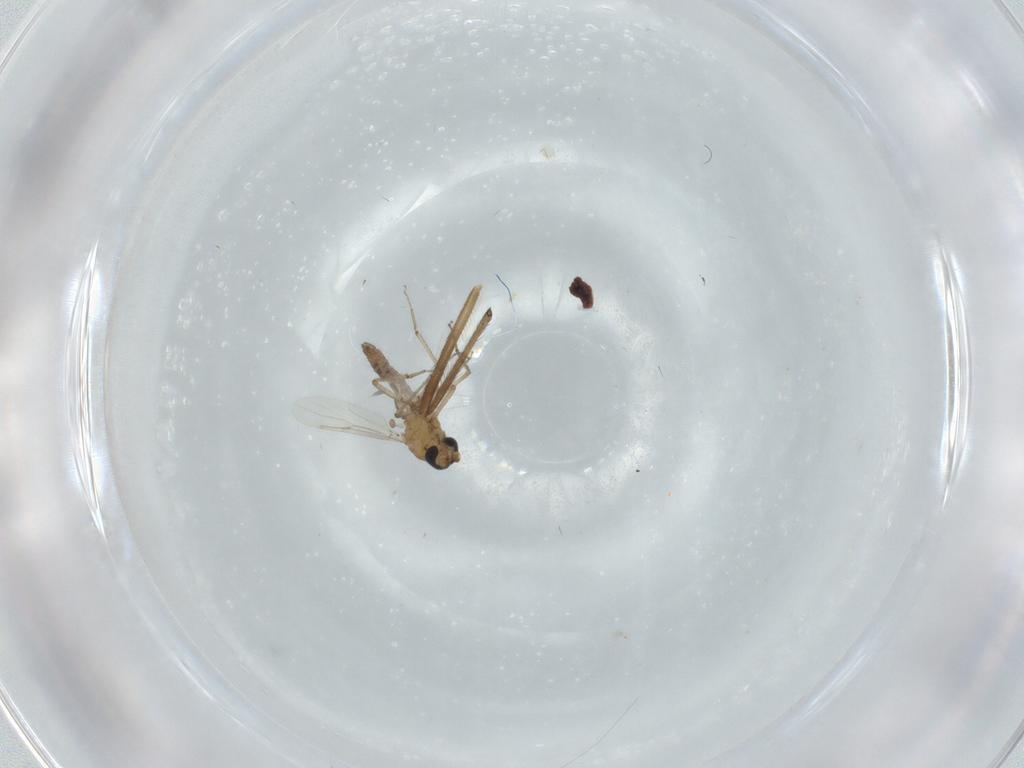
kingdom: Animalia
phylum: Arthropoda
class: Insecta
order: Diptera
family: Ceratopogonidae
